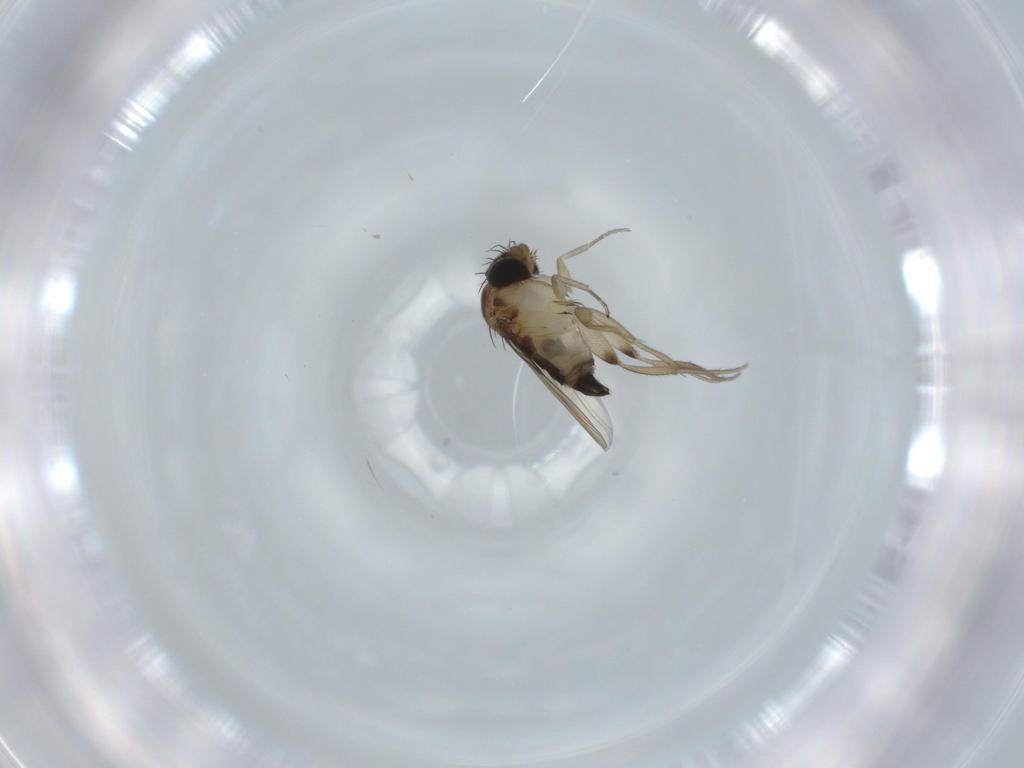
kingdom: Animalia
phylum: Arthropoda
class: Insecta
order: Diptera
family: Phoridae
